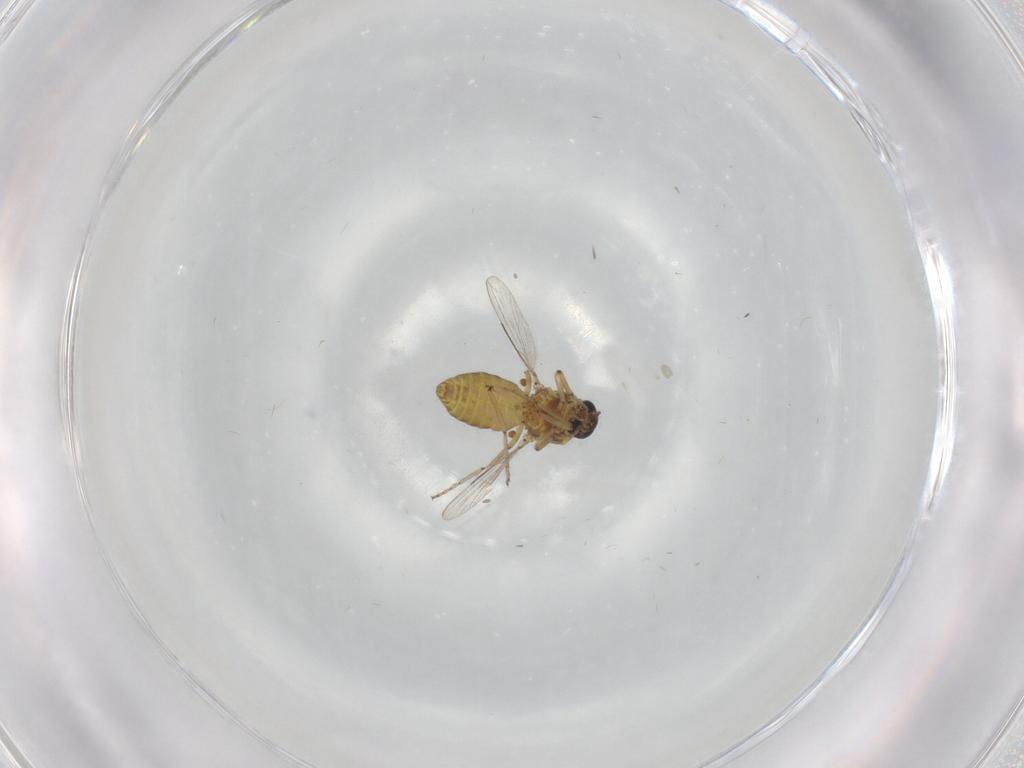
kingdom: Animalia
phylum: Arthropoda
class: Insecta
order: Diptera
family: Ceratopogonidae
